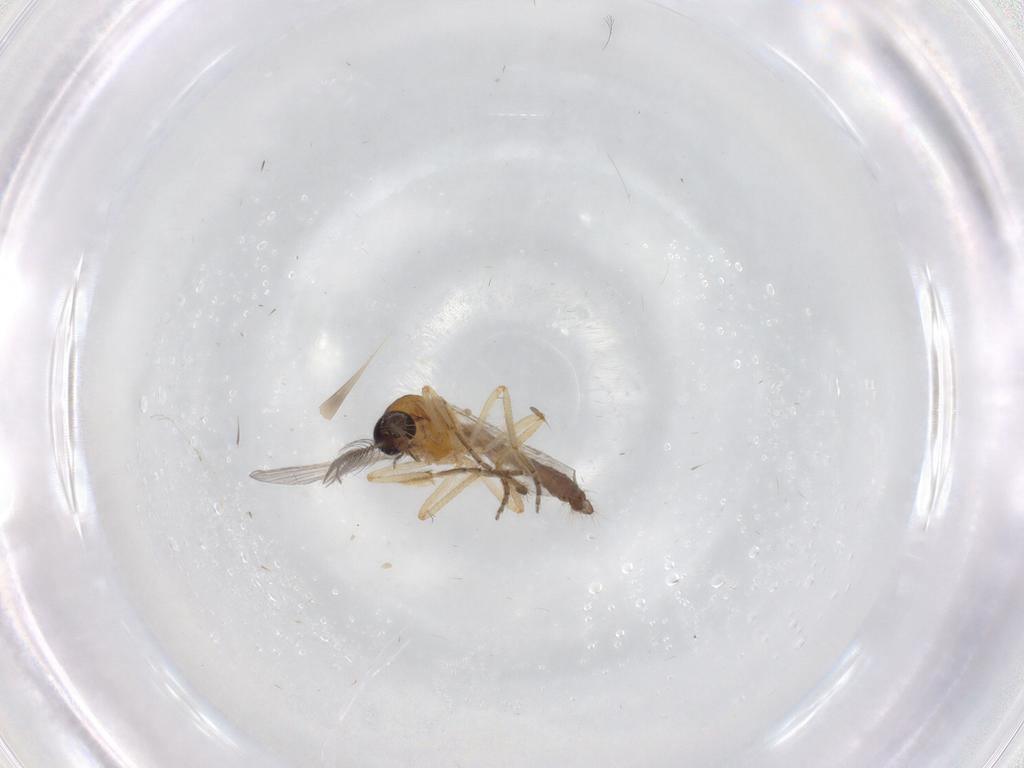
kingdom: Animalia
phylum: Arthropoda
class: Insecta
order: Diptera
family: Ceratopogonidae
